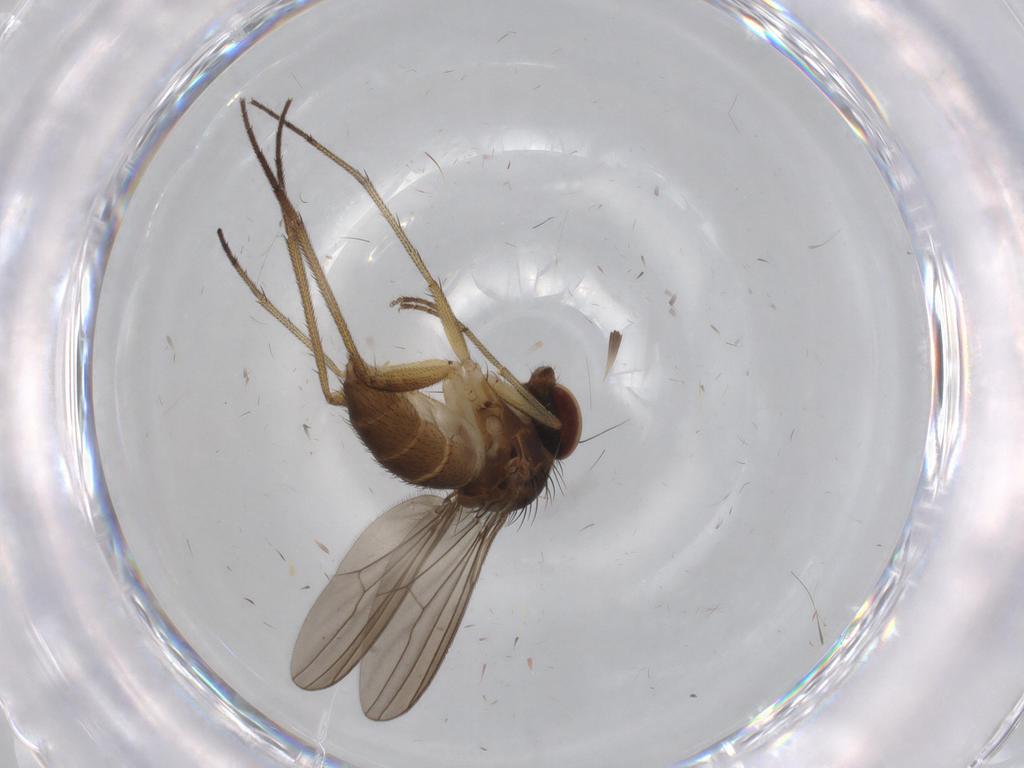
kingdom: Animalia
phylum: Arthropoda
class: Insecta
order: Diptera
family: Dolichopodidae
